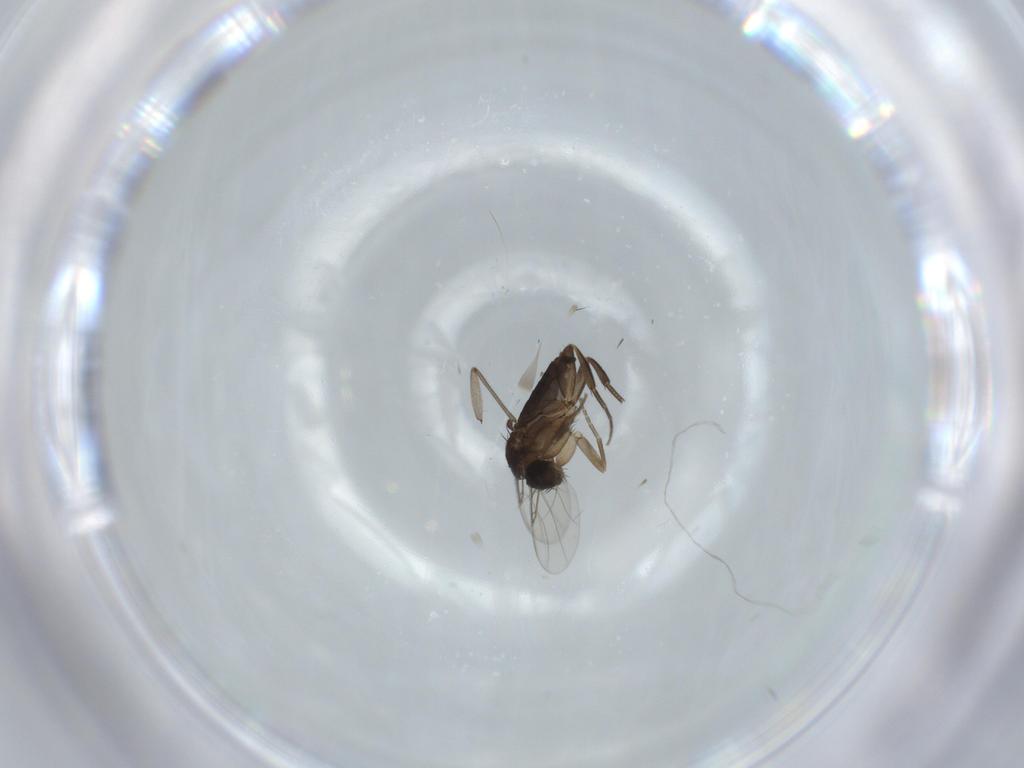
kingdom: Animalia
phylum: Arthropoda
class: Insecta
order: Diptera
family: Phoridae
